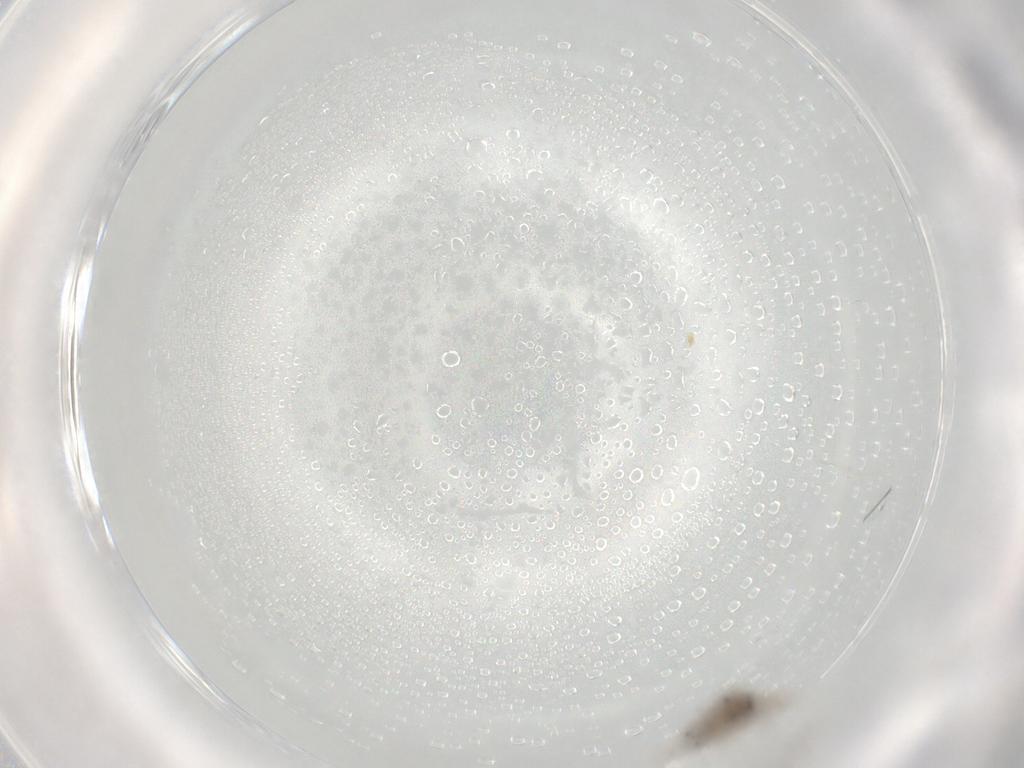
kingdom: Animalia
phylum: Arthropoda
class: Insecta
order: Diptera
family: Chironomidae
